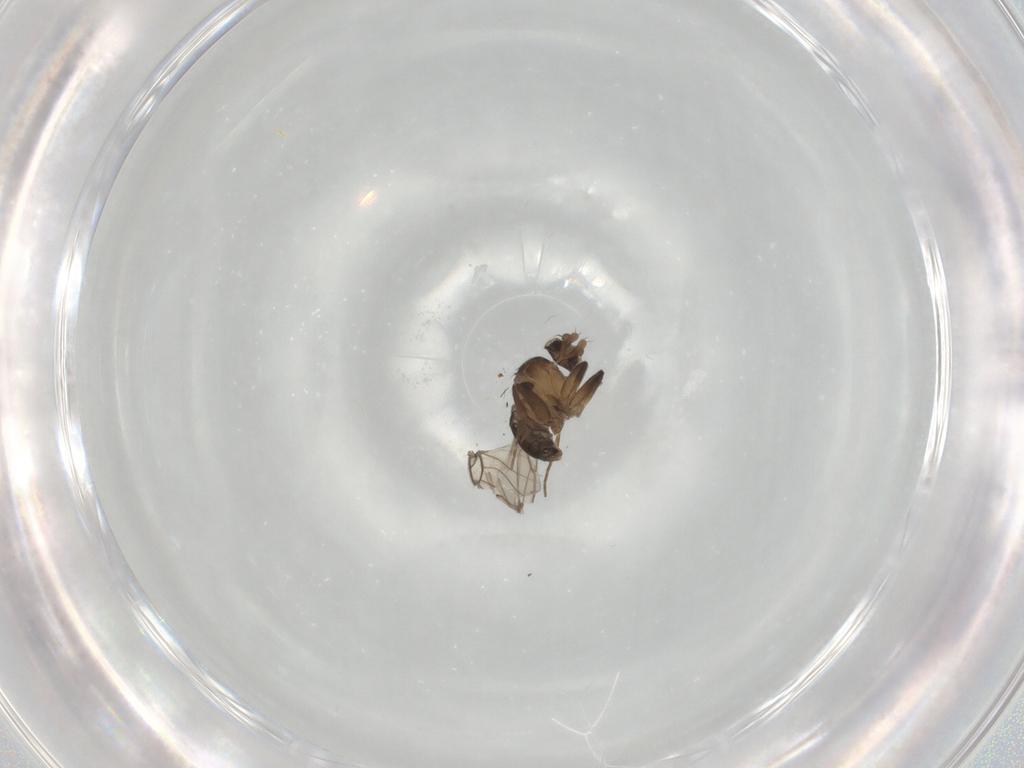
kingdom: Animalia
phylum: Arthropoda
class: Insecta
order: Diptera
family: Phoridae
